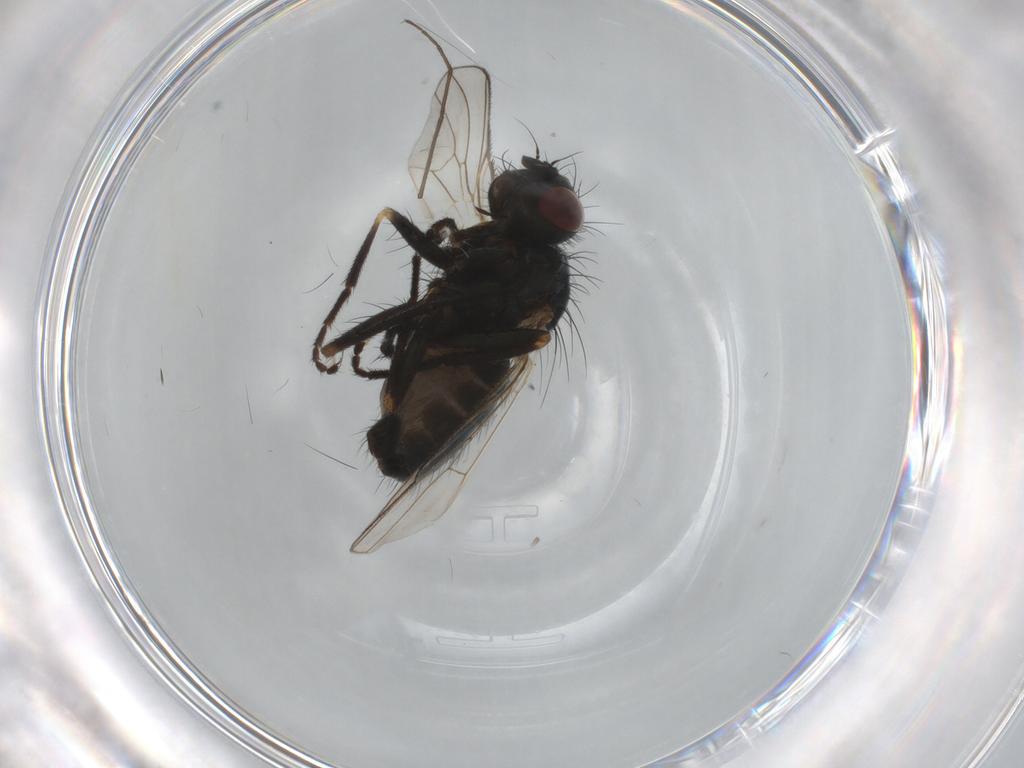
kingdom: Animalia
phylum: Arthropoda
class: Insecta
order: Diptera
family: Muscidae
